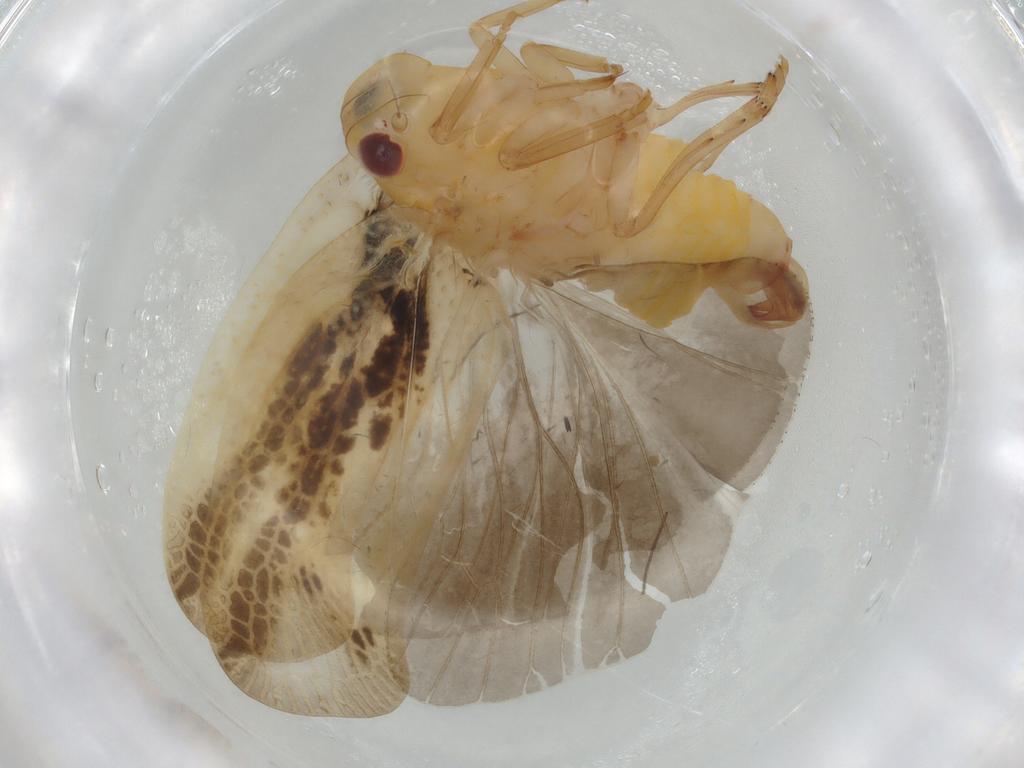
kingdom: Animalia
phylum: Arthropoda
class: Insecta
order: Hemiptera
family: Flatidae
